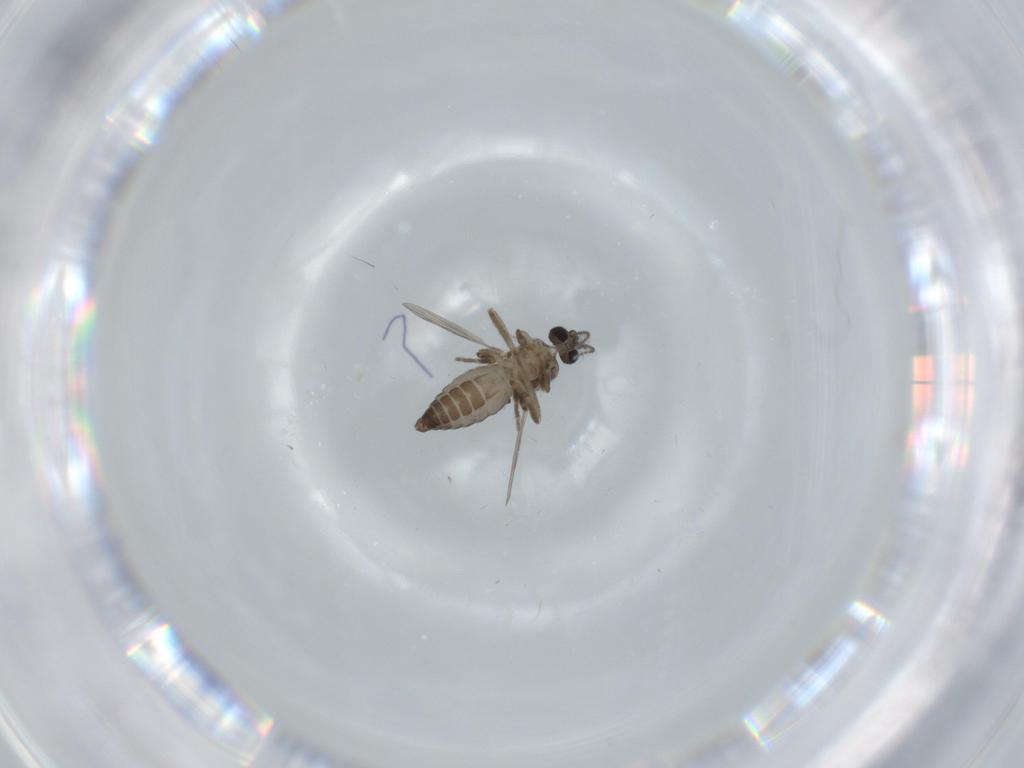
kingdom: Animalia
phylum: Arthropoda
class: Insecta
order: Diptera
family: Ceratopogonidae
